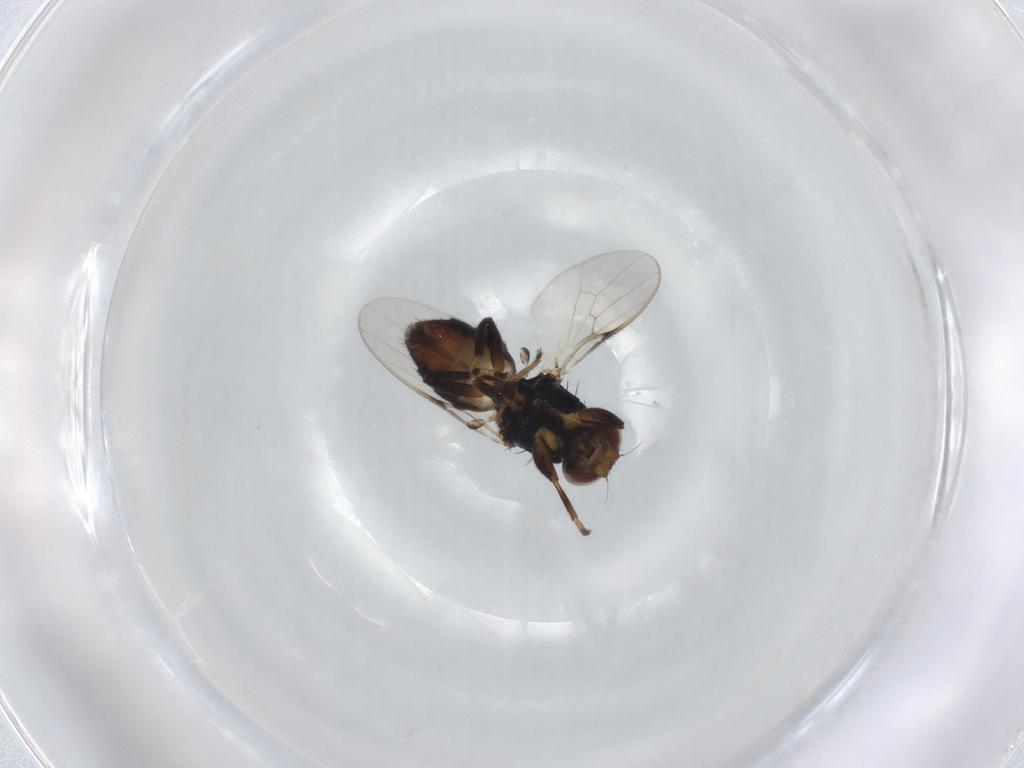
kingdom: Animalia
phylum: Arthropoda
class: Insecta
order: Diptera
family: Chloropidae
